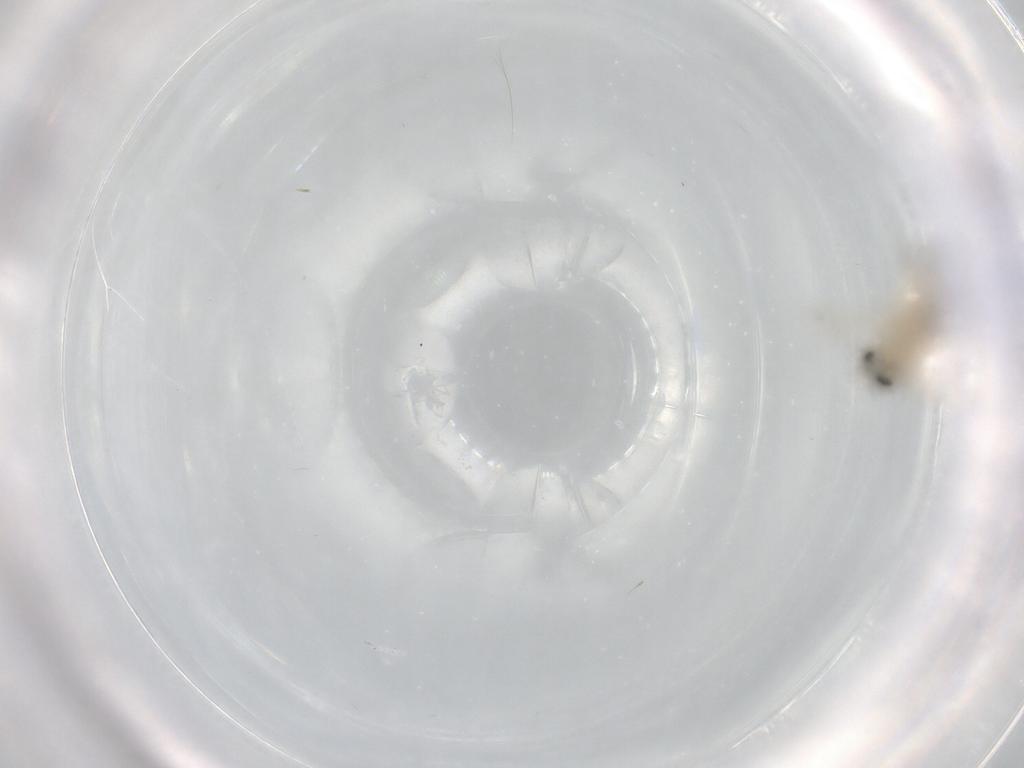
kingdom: Animalia
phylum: Arthropoda
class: Insecta
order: Diptera
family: Chironomidae
